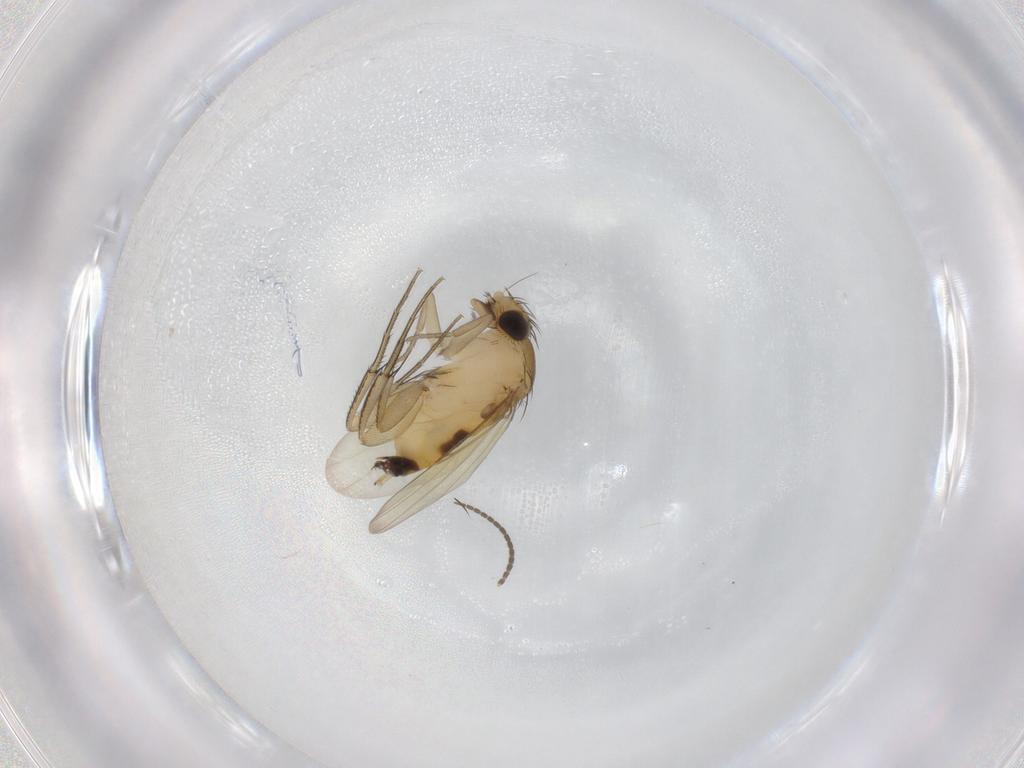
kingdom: Animalia
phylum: Arthropoda
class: Insecta
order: Diptera
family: Phoridae
